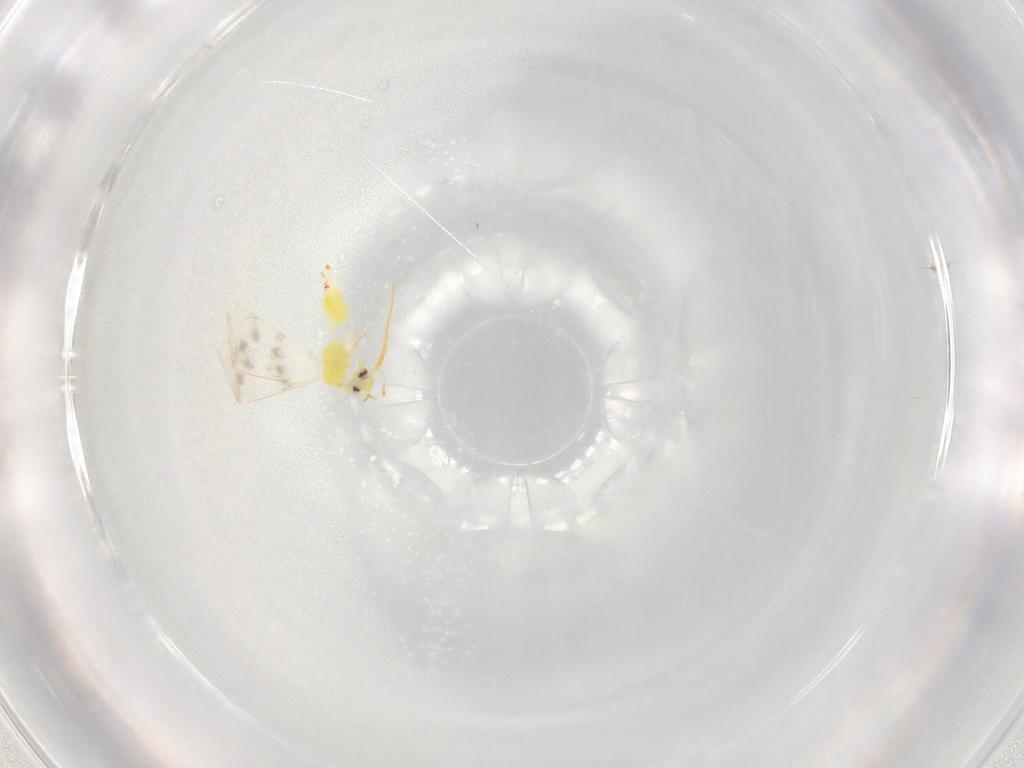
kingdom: Animalia
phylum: Arthropoda
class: Insecta
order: Hemiptera
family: Aleyrodidae
